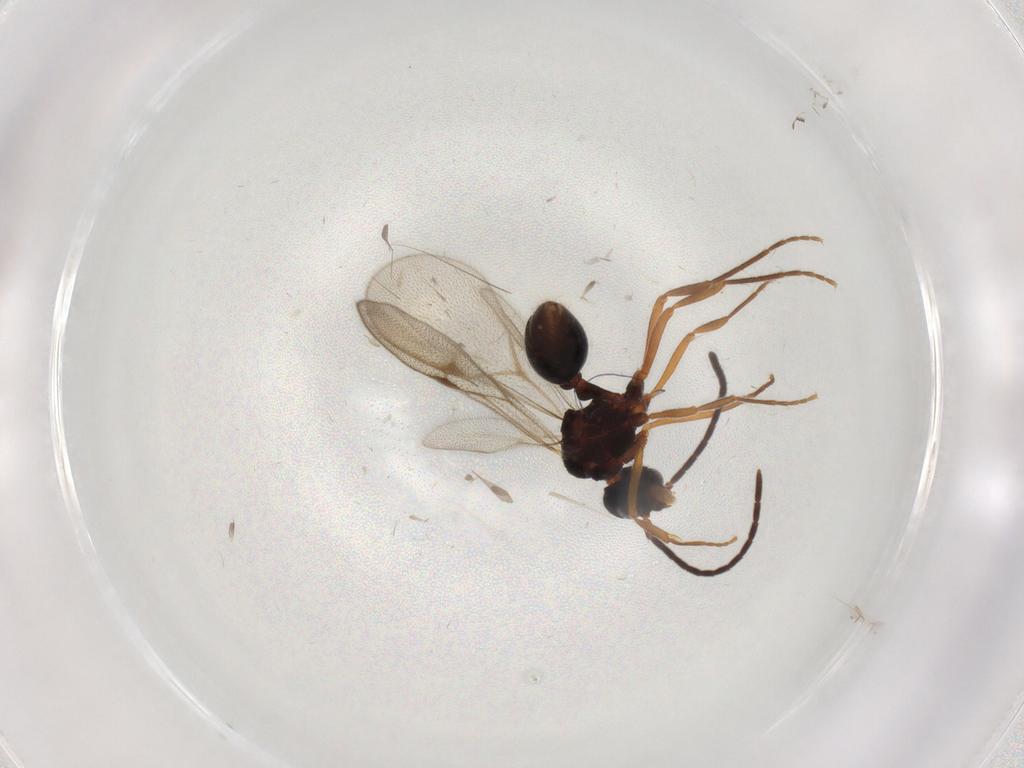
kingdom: Animalia
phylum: Arthropoda
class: Insecta
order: Hymenoptera
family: Formicidae
